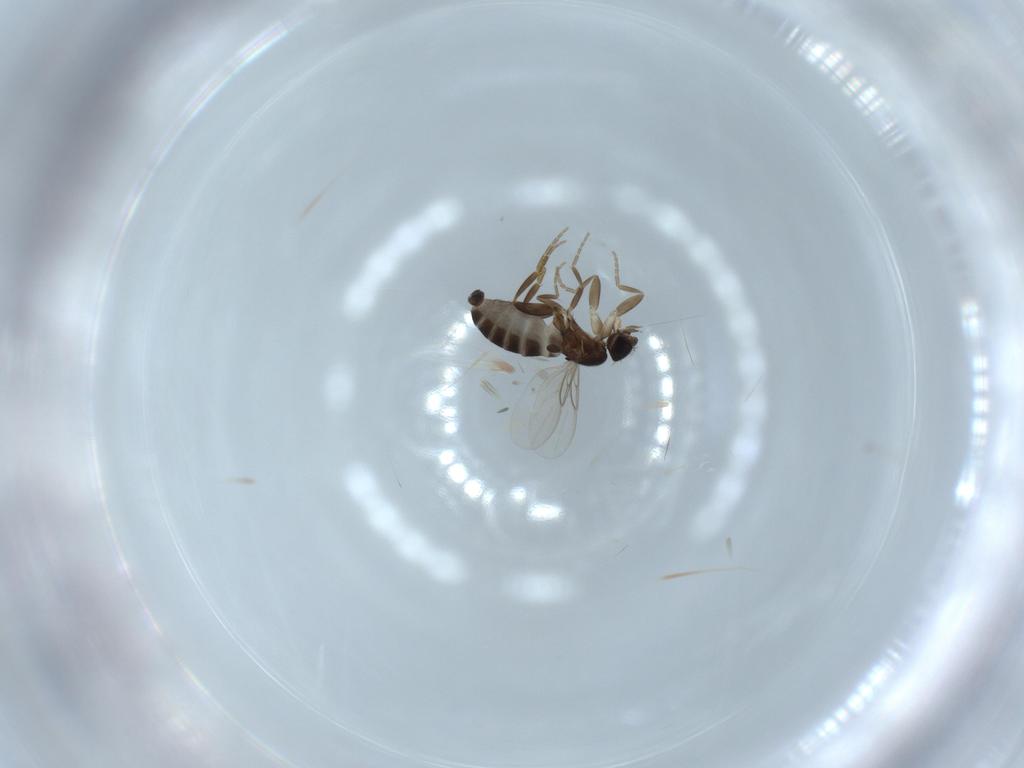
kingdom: Animalia
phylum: Arthropoda
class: Insecta
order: Diptera
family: Phoridae
